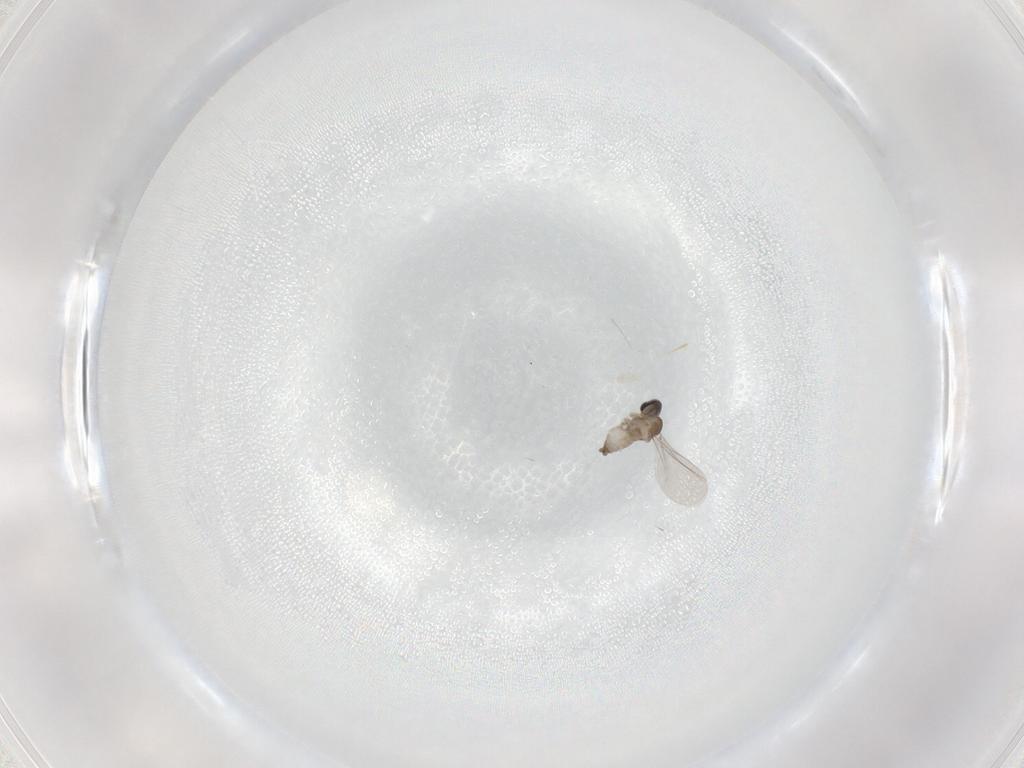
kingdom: Animalia
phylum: Arthropoda
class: Insecta
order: Diptera
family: Cecidomyiidae
